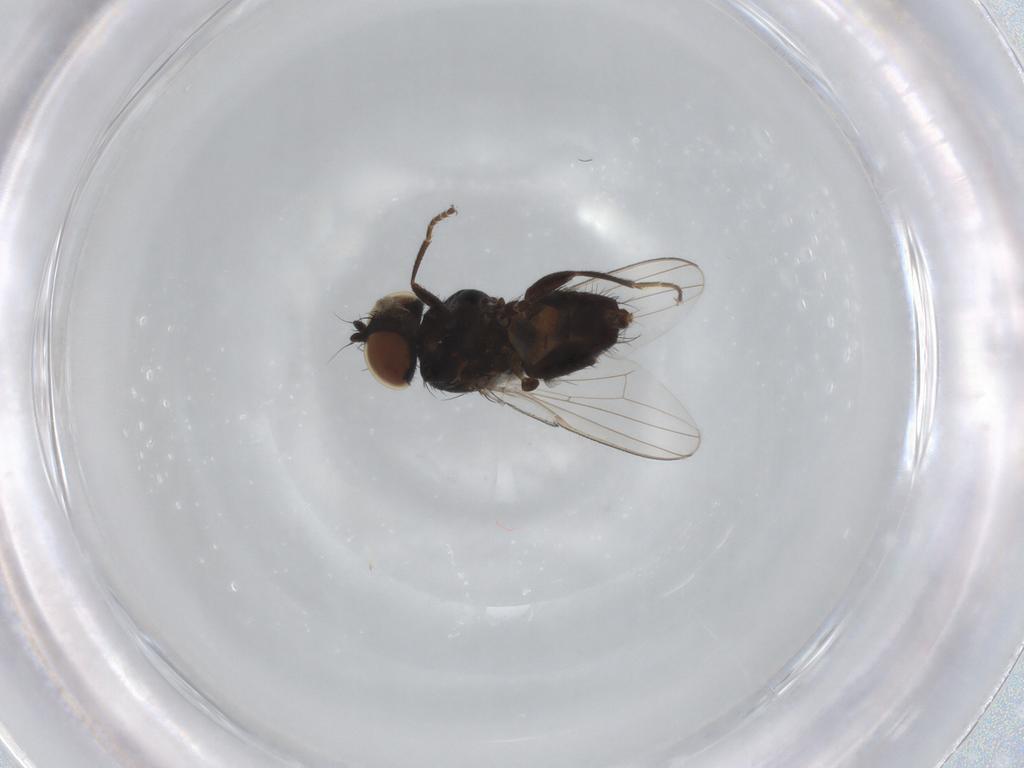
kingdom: Animalia
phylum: Arthropoda
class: Insecta
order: Diptera
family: Milichiidae
